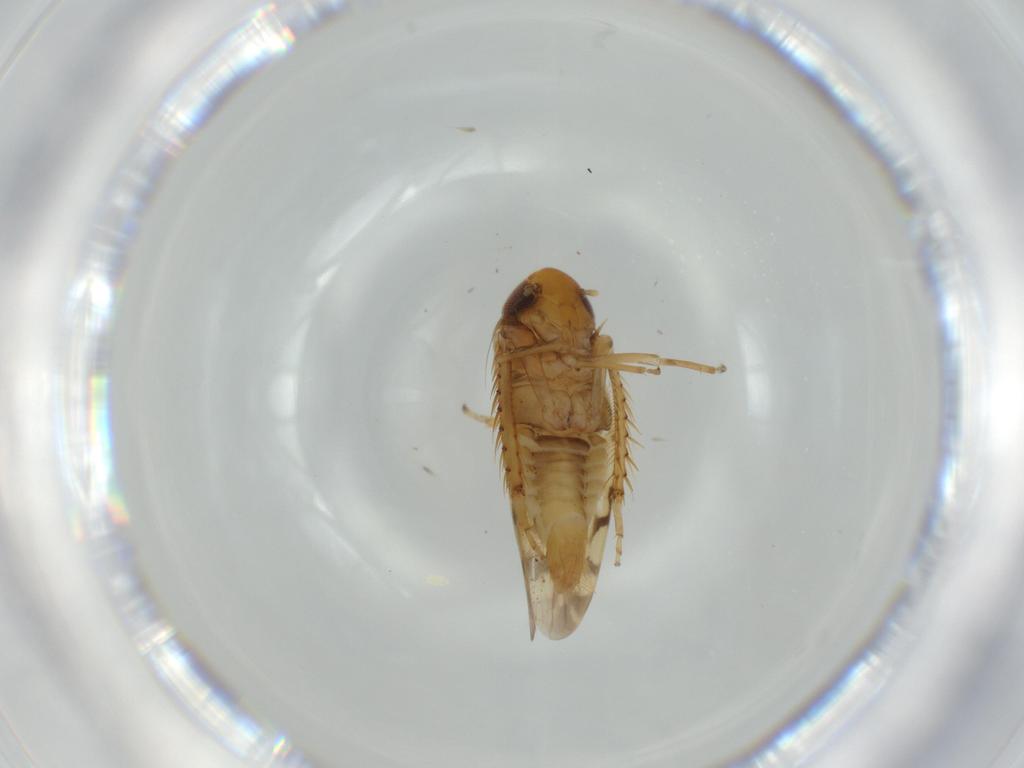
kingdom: Animalia
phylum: Arthropoda
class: Insecta
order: Hemiptera
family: Cicadellidae
